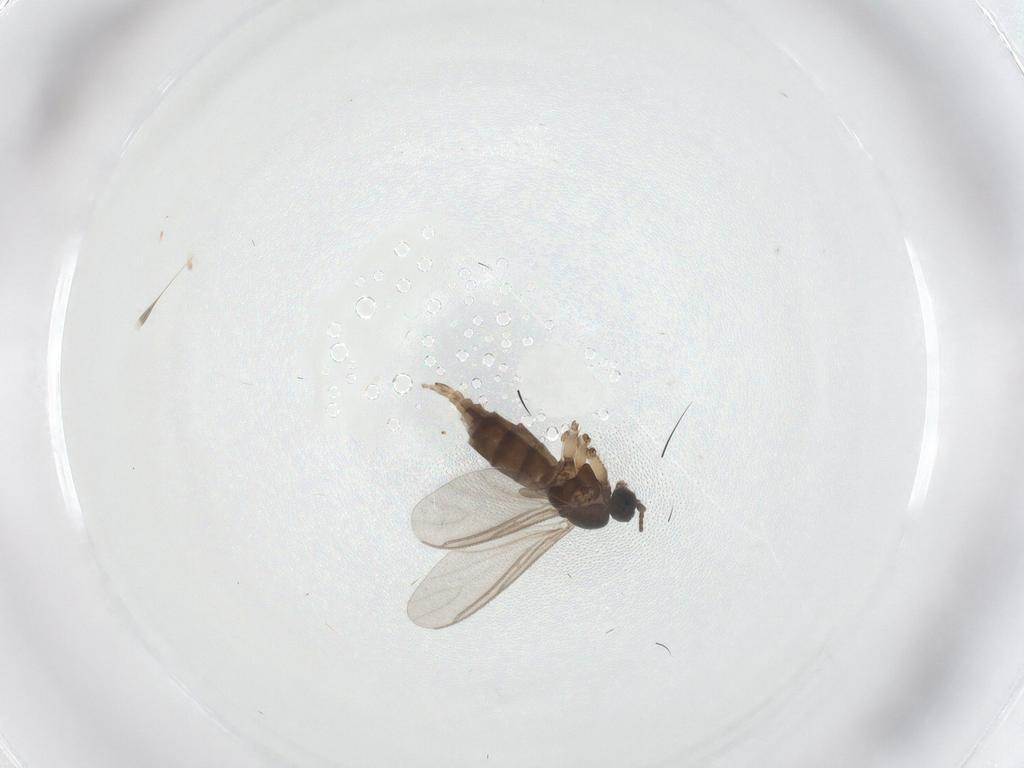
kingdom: Animalia
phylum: Arthropoda
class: Insecta
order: Diptera
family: Sciaridae
